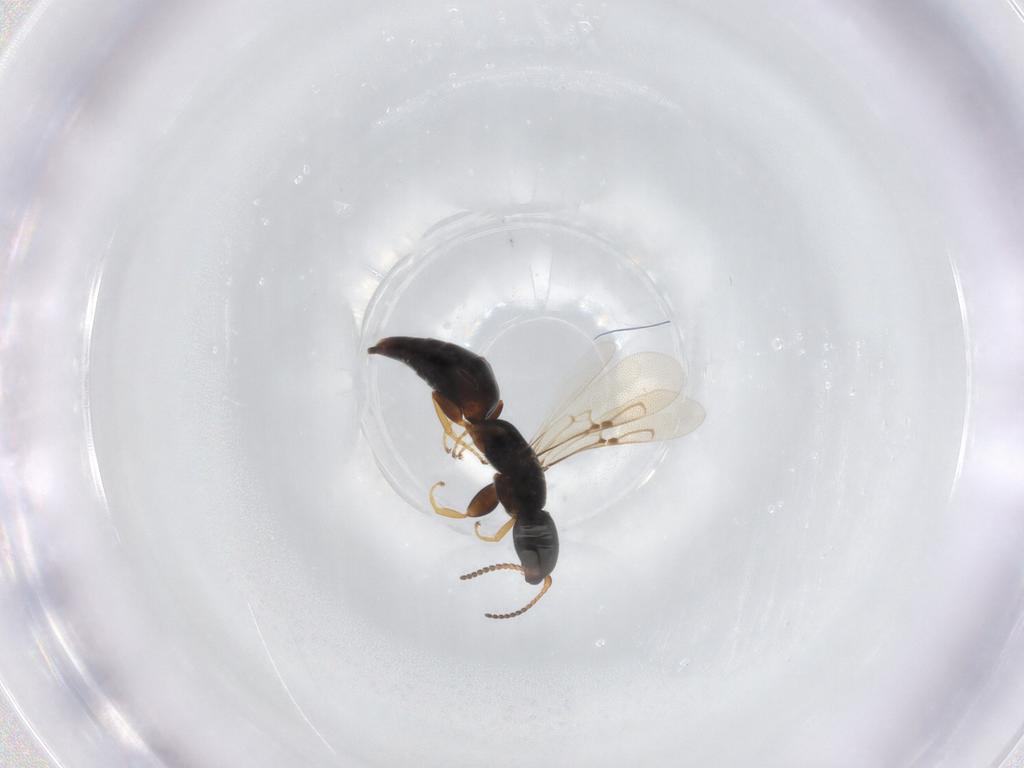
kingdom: Animalia
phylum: Arthropoda
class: Insecta
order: Hymenoptera
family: Bethylidae
